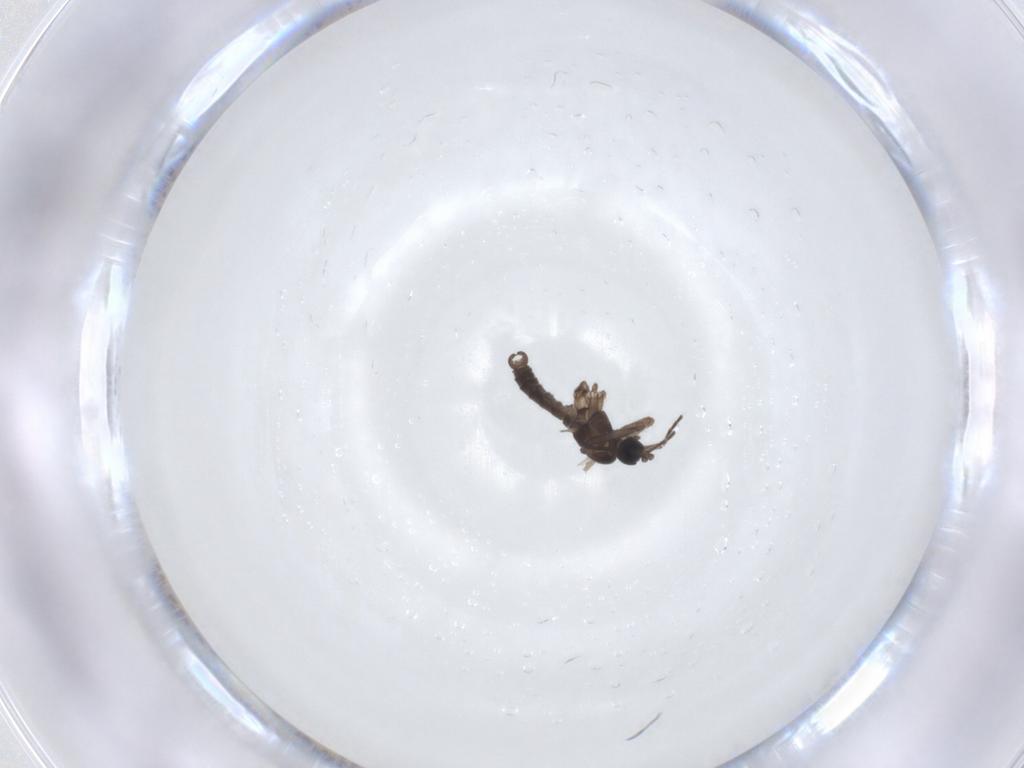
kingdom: Animalia
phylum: Arthropoda
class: Insecta
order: Diptera
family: Sciaridae
